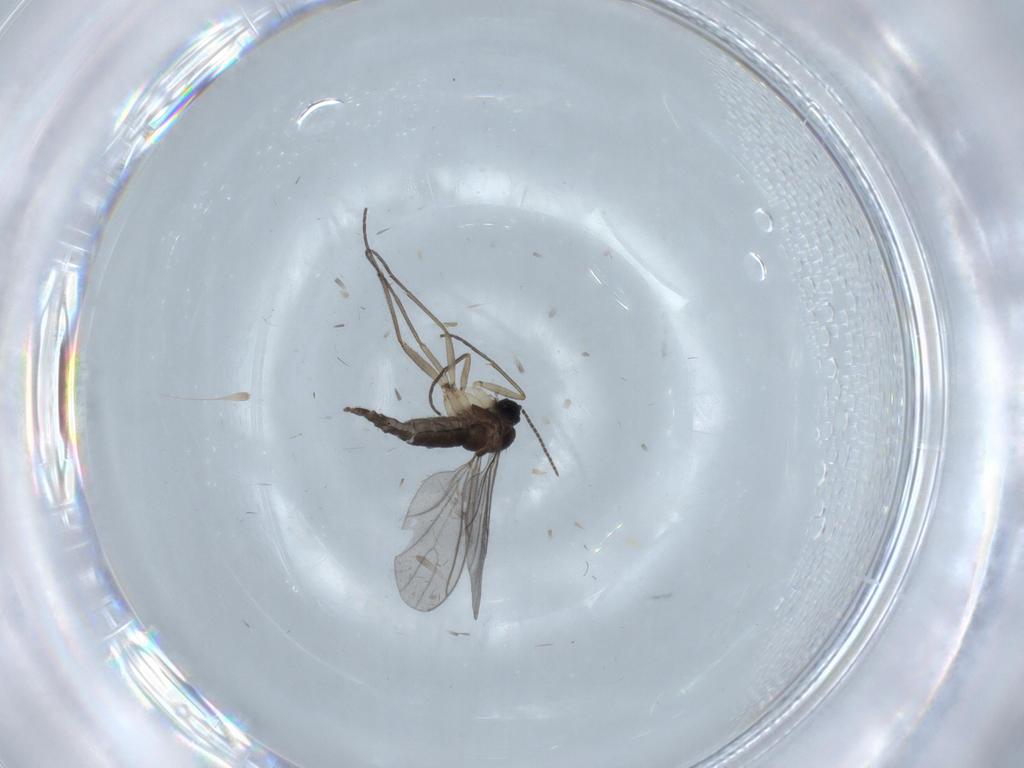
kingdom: Animalia
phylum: Arthropoda
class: Insecta
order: Diptera
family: Sciaridae
